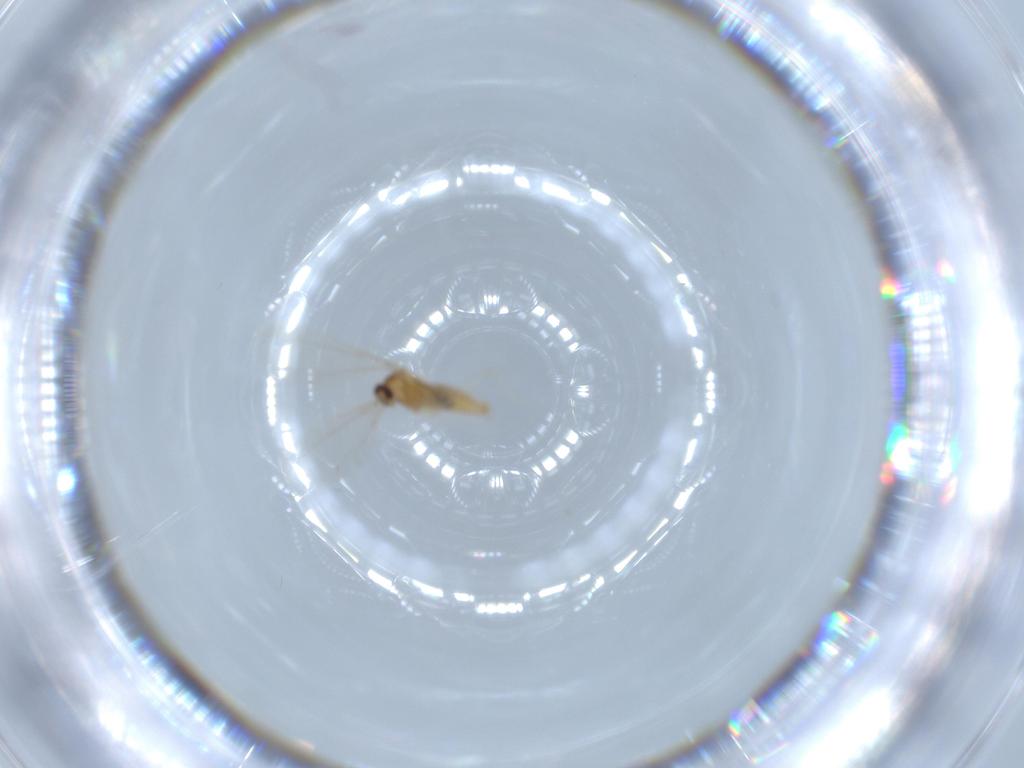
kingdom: Animalia
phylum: Arthropoda
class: Insecta
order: Diptera
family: Cecidomyiidae
